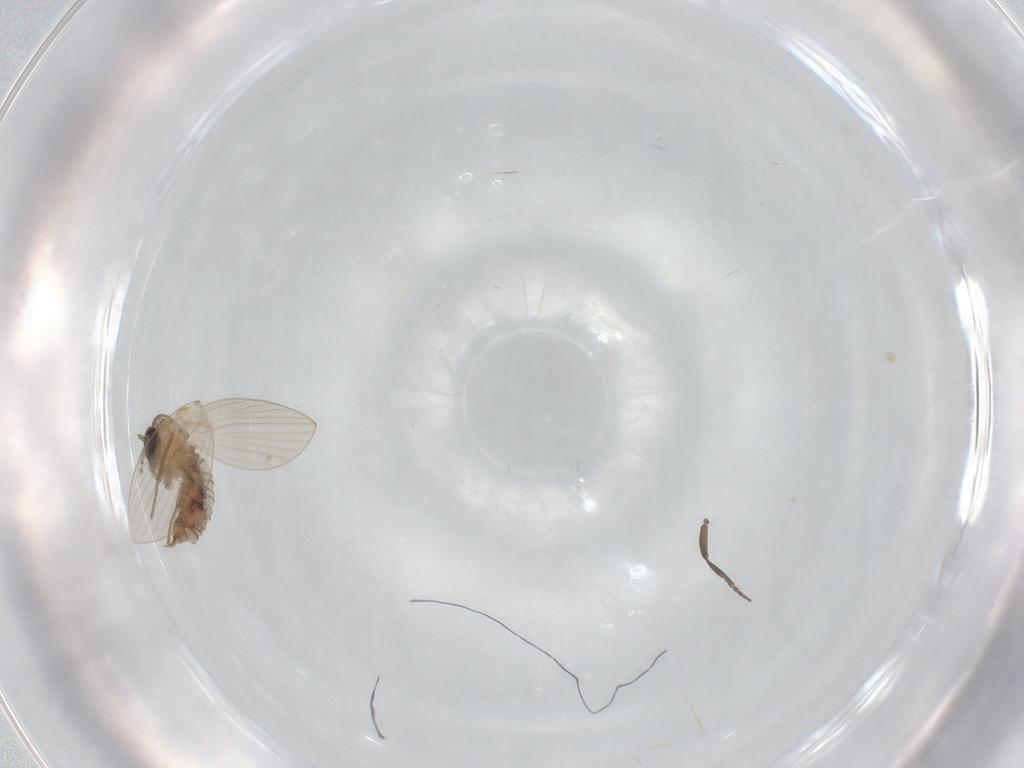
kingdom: Animalia
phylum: Arthropoda
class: Insecta
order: Diptera
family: Psychodidae
